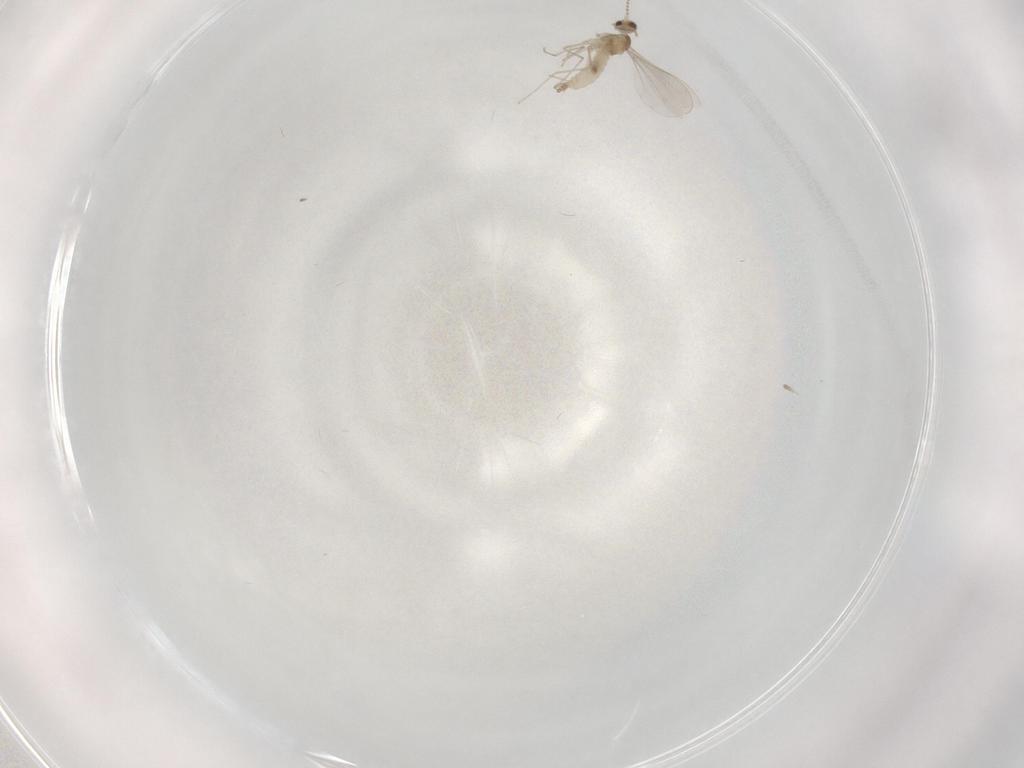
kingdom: Animalia
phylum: Arthropoda
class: Insecta
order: Diptera
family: Cecidomyiidae
